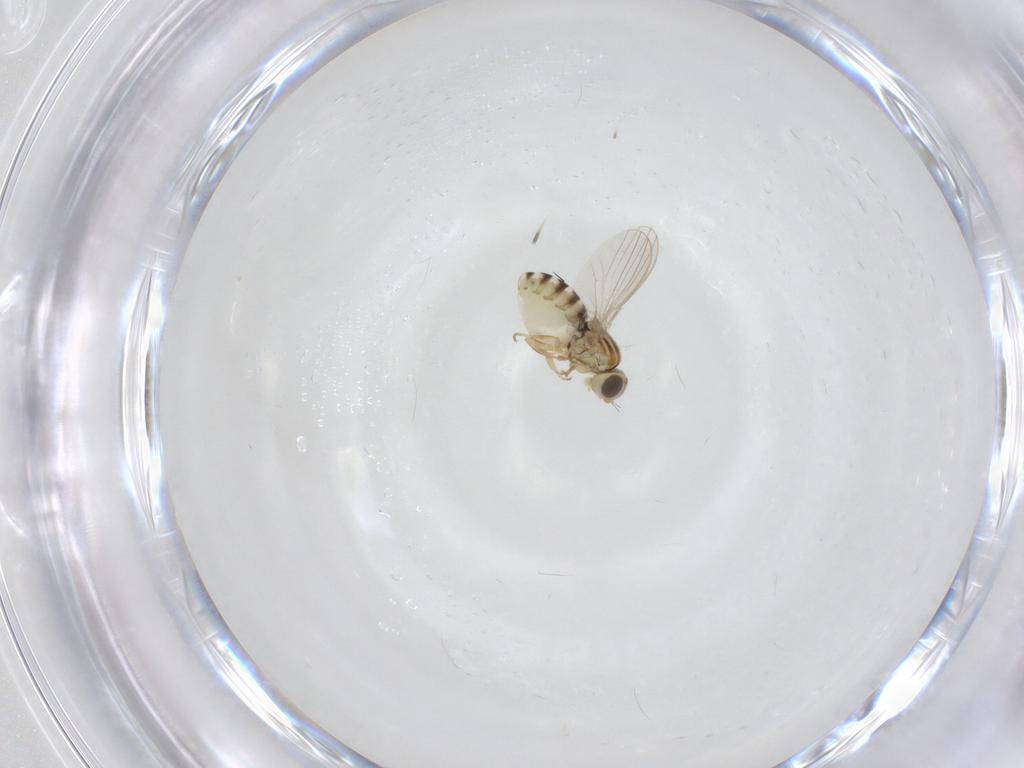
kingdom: Animalia
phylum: Arthropoda
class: Insecta
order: Diptera
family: Chyromyidae
